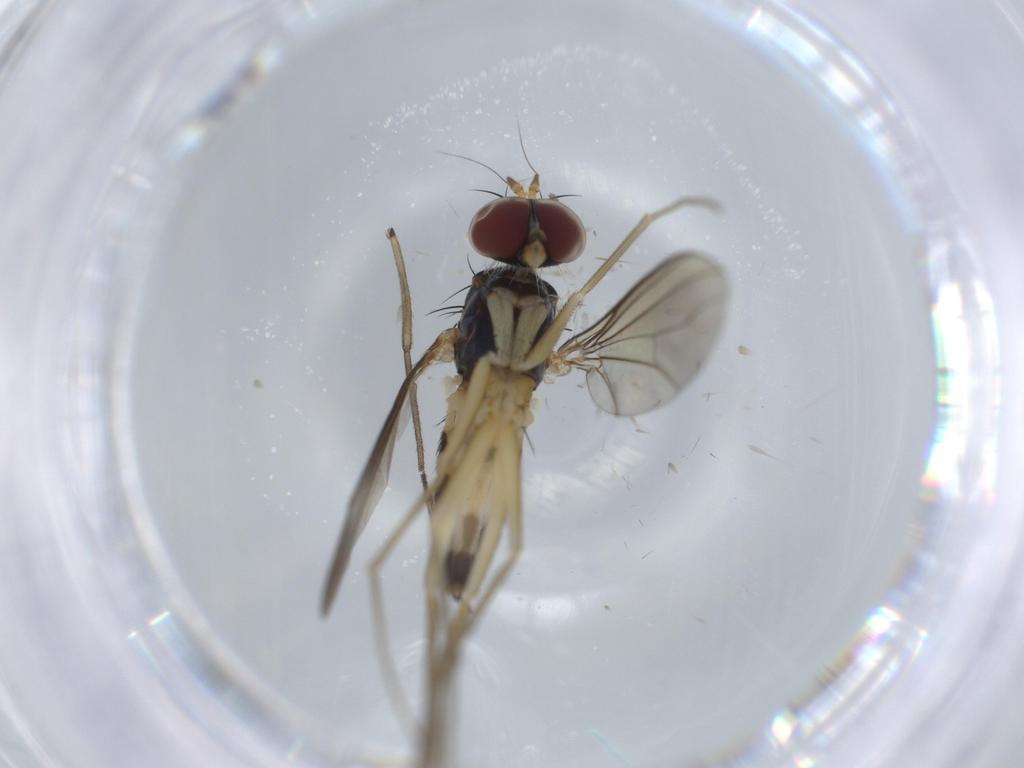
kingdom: Animalia
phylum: Arthropoda
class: Insecta
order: Diptera
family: Dolichopodidae
